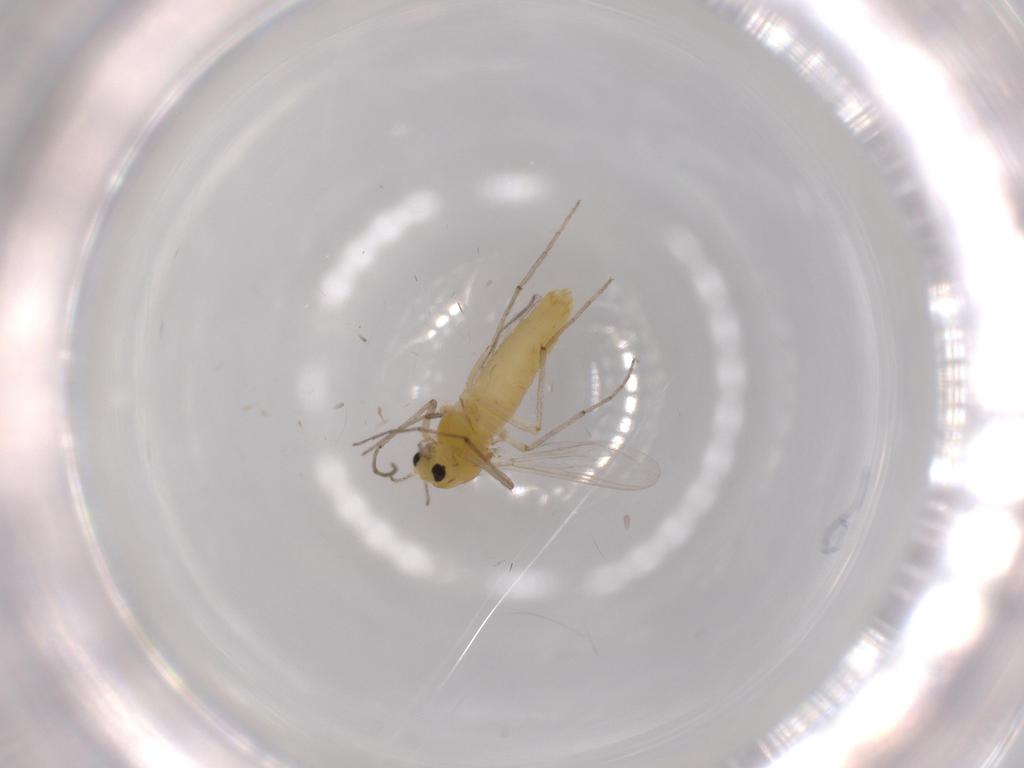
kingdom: Animalia
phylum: Arthropoda
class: Insecta
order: Diptera
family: Chironomidae
